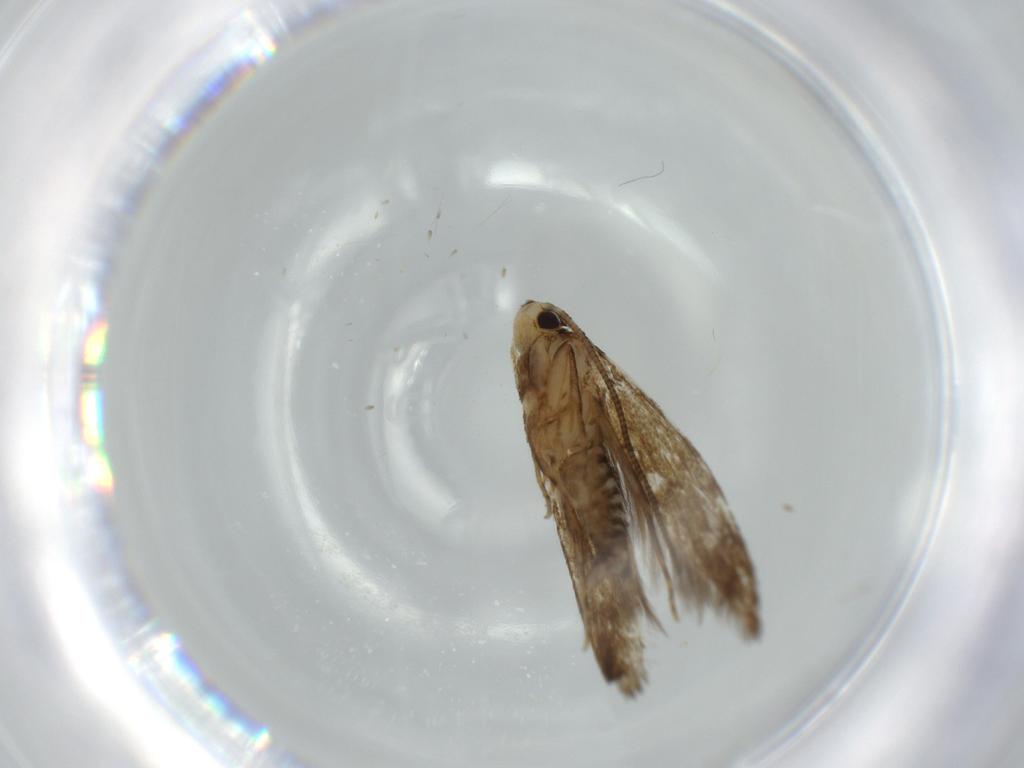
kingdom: Animalia
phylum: Arthropoda
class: Insecta
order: Lepidoptera
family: Tineidae
